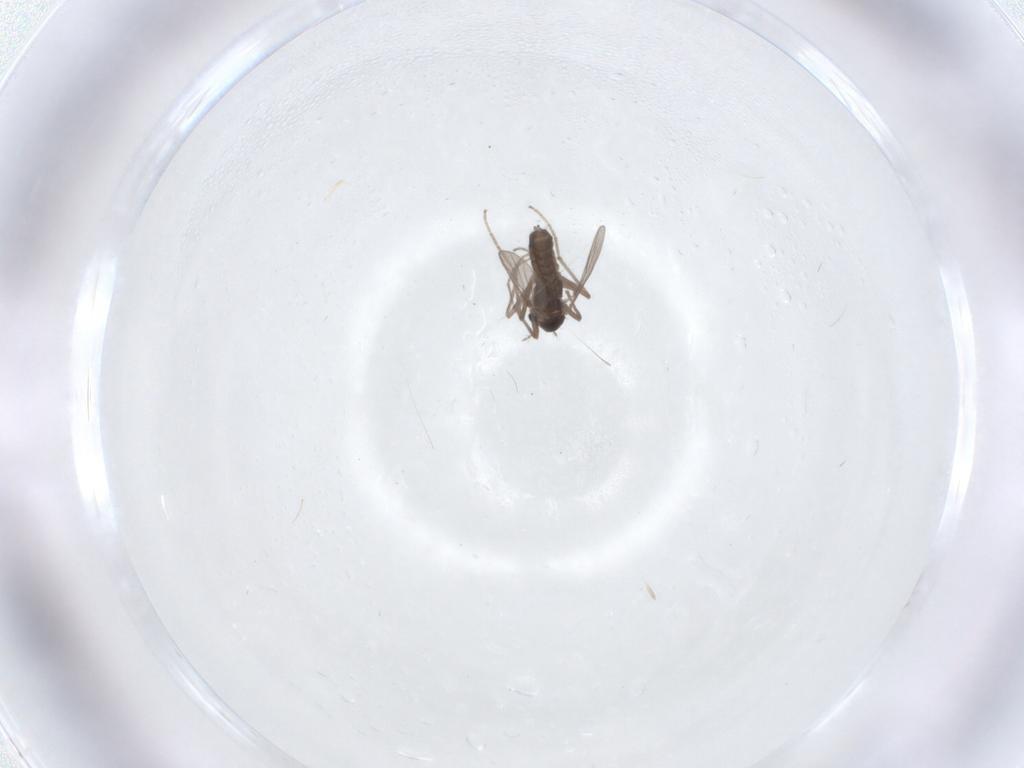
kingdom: Animalia
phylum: Arthropoda
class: Insecta
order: Diptera
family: Chironomidae
